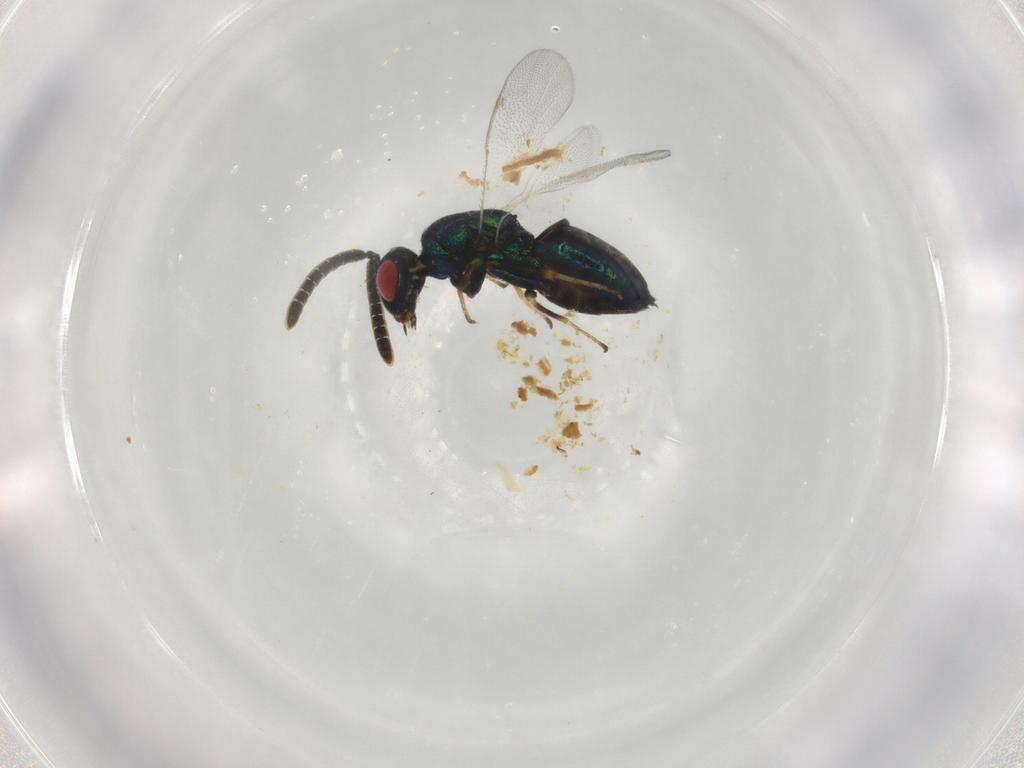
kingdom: Animalia
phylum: Arthropoda
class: Insecta
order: Hymenoptera
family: Torymidae
